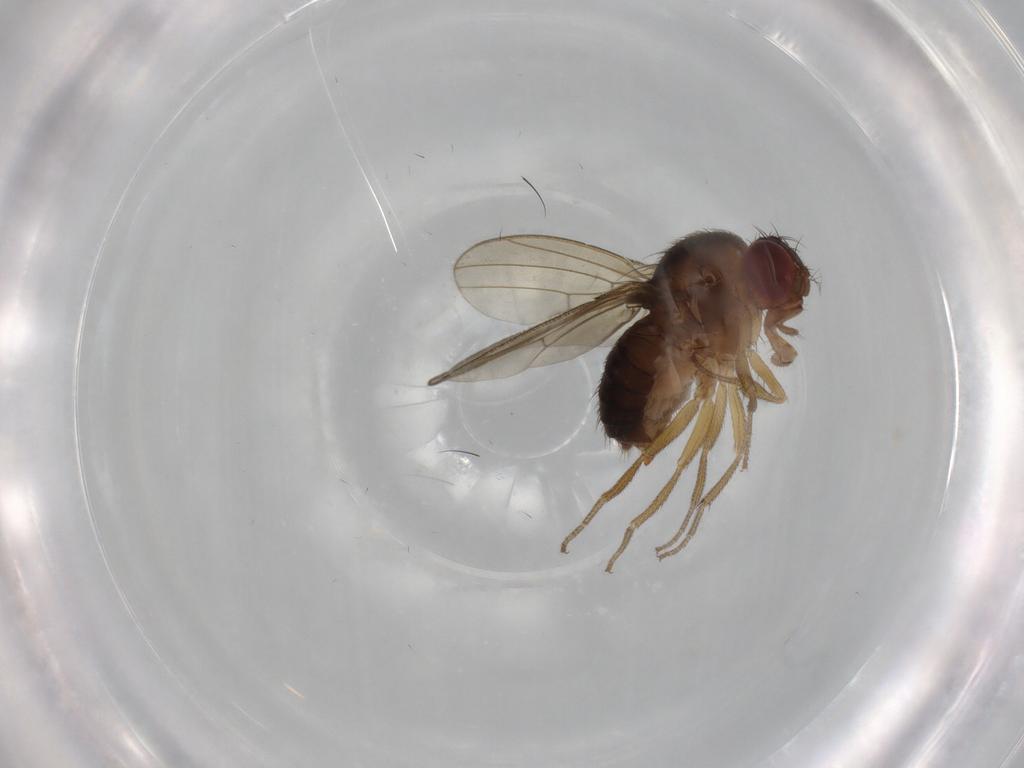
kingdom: Animalia
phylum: Arthropoda
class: Insecta
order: Diptera
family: Drosophilidae
